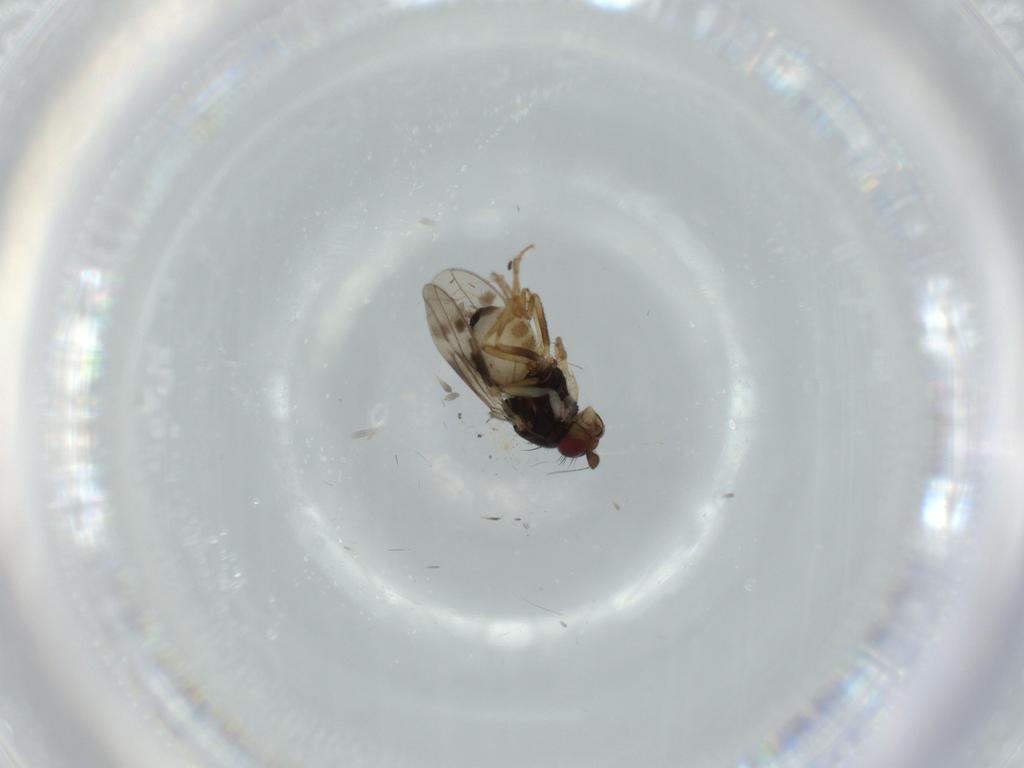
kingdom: Animalia
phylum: Arthropoda
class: Insecta
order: Diptera
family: Sphaeroceridae
